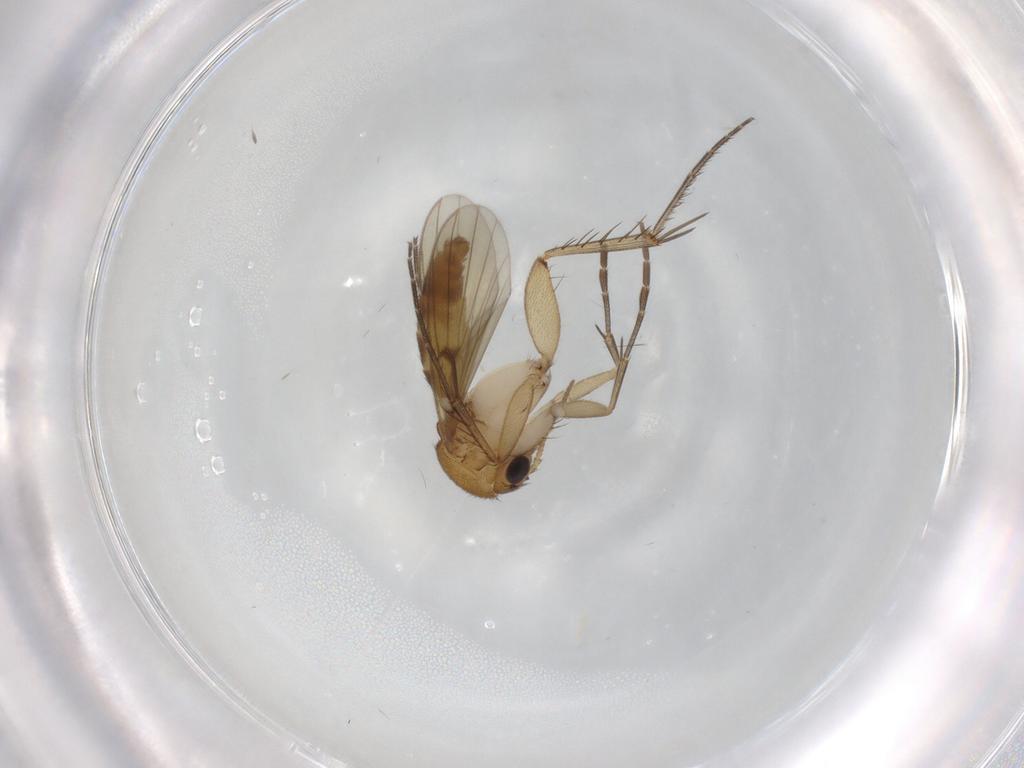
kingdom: Animalia
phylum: Arthropoda
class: Insecta
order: Diptera
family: Cecidomyiidae
